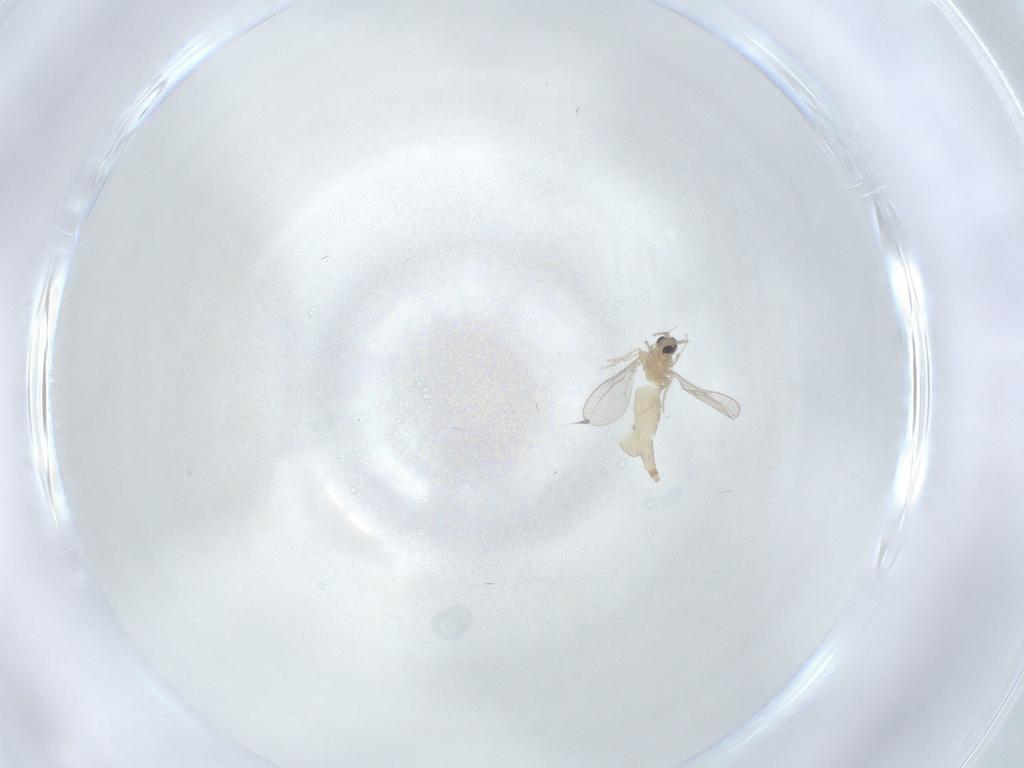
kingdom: Animalia
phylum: Arthropoda
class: Insecta
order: Diptera
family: Cecidomyiidae
